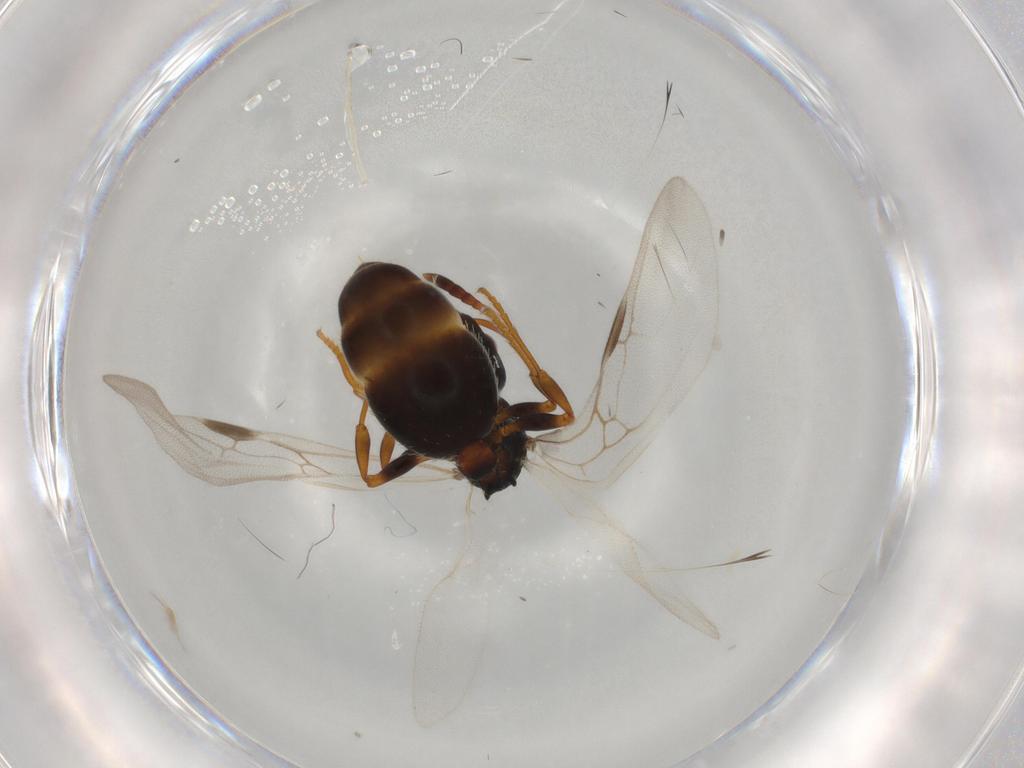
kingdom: Animalia
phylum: Arthropoda
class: Insecta
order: Hymenoptera
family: Formicidae
